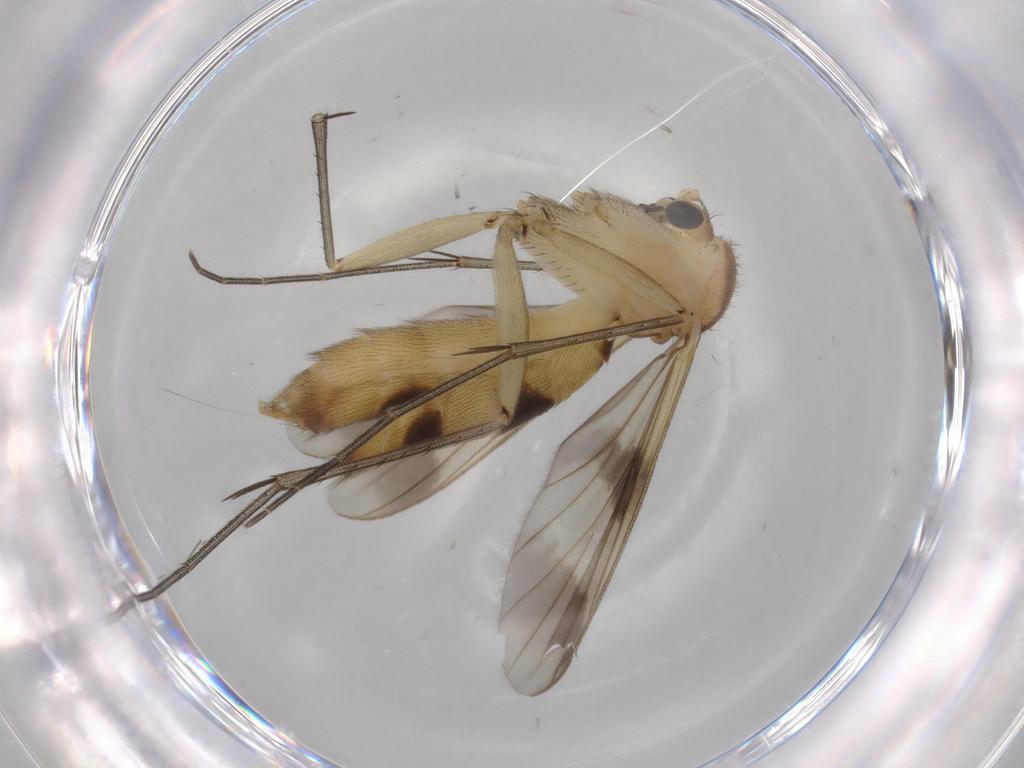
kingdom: Animalia
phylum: Arthropoda
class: Insecta
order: Diptera
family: Mycetophilidae
